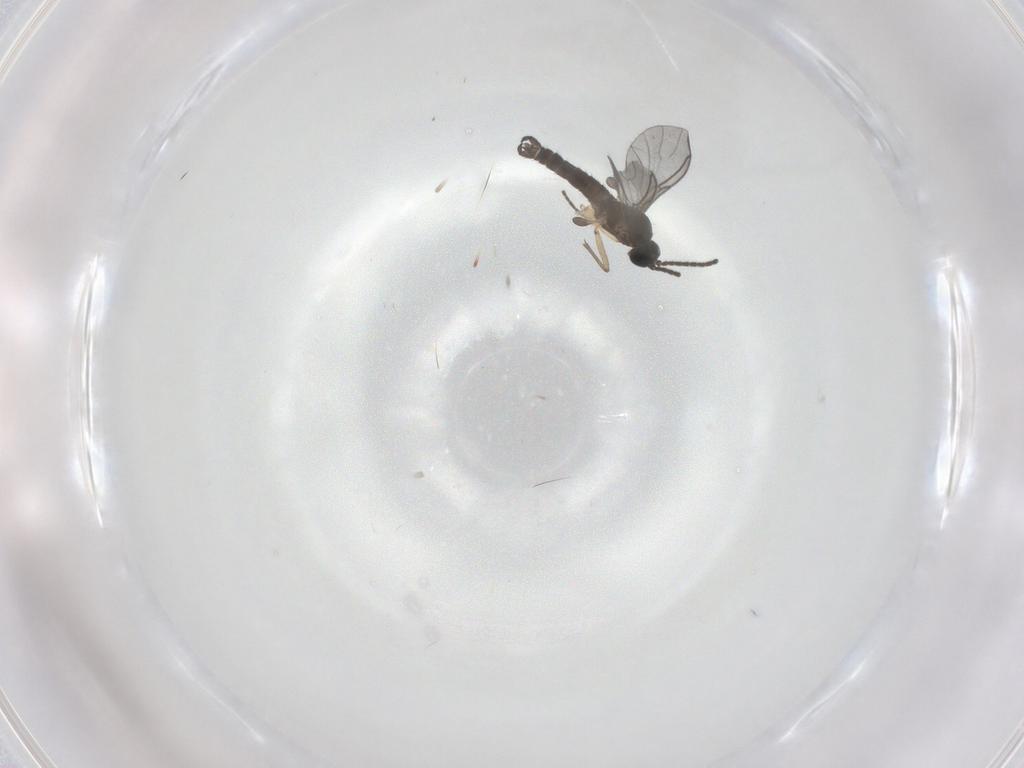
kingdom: Animalia
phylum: Arthropoda
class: Insecta
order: Diptera
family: Sciaridae
